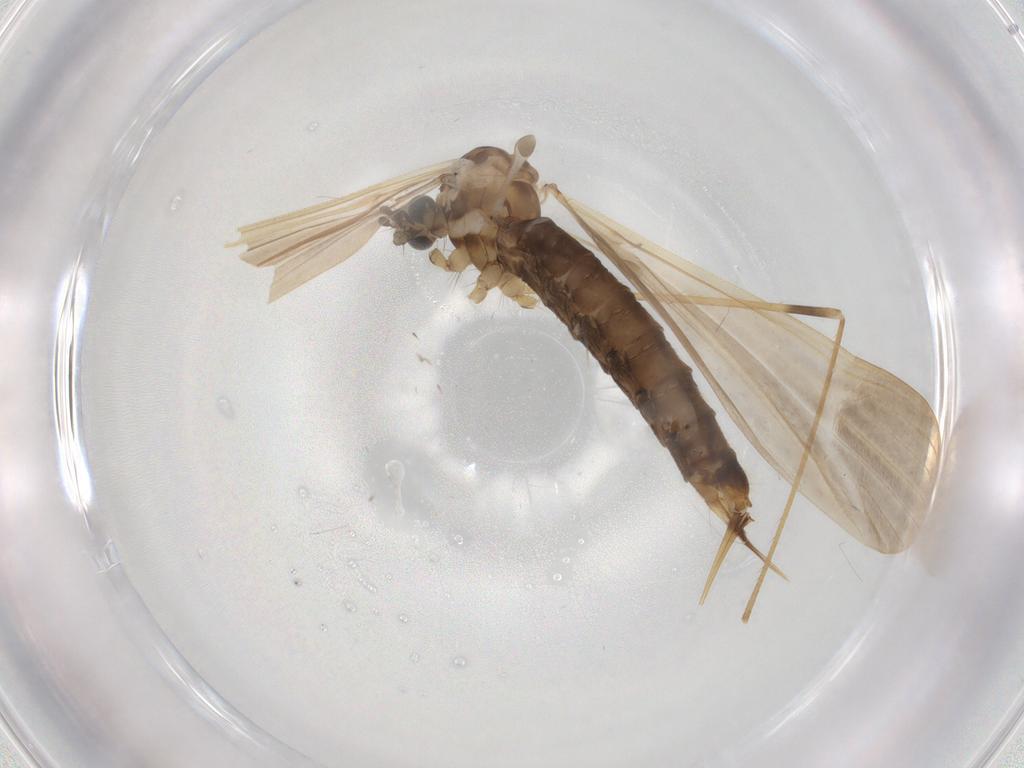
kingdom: Animalia
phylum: Arthropoda
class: Insecta
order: Diptera
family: Limoniidae
